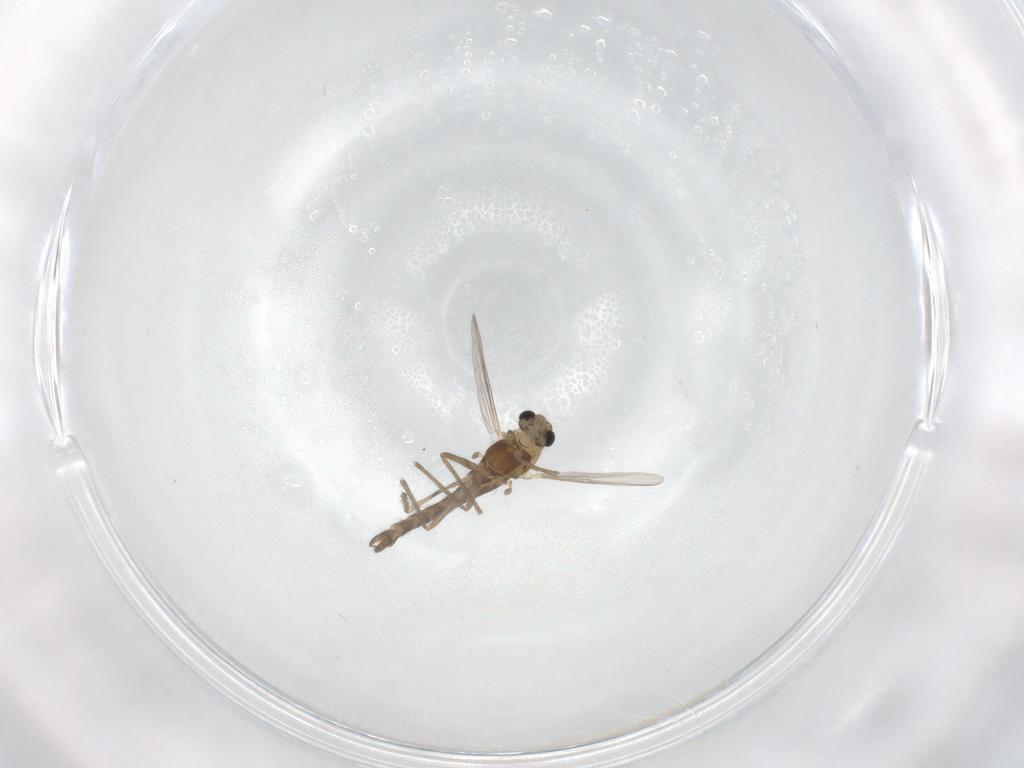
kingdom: Animalia
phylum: Arthropoda
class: Insecta
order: Diptera
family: Chironomidae
